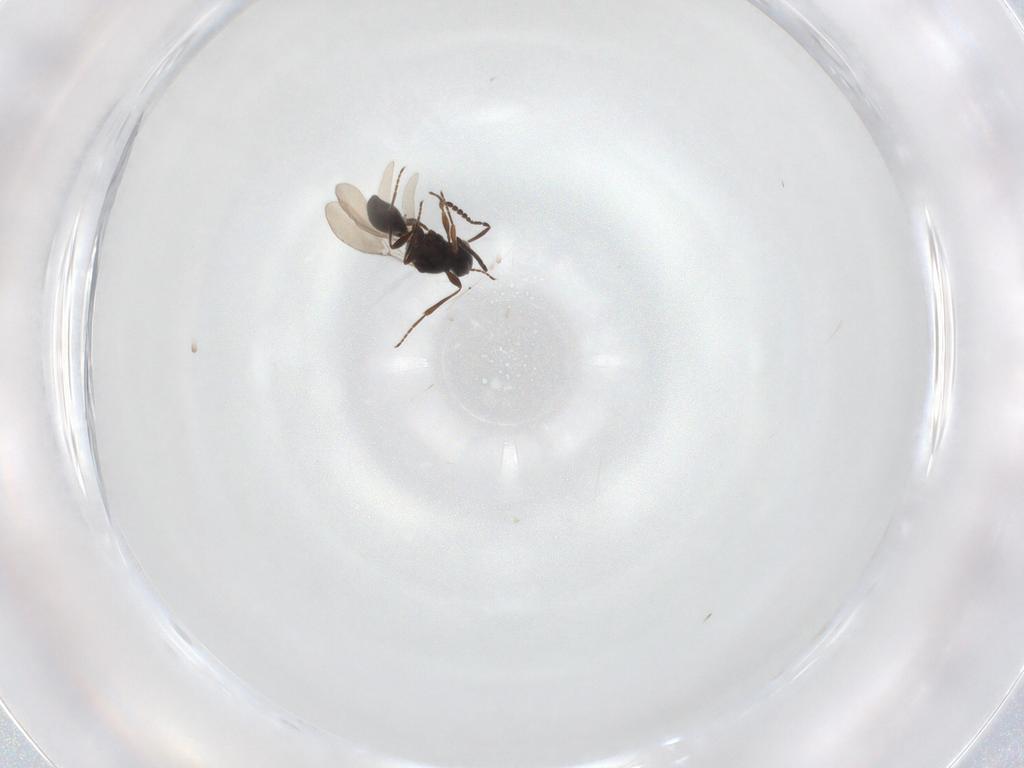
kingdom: Animalia
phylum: Arthropoda
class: Insecta
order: Hymenoptera
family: Platygastridae
